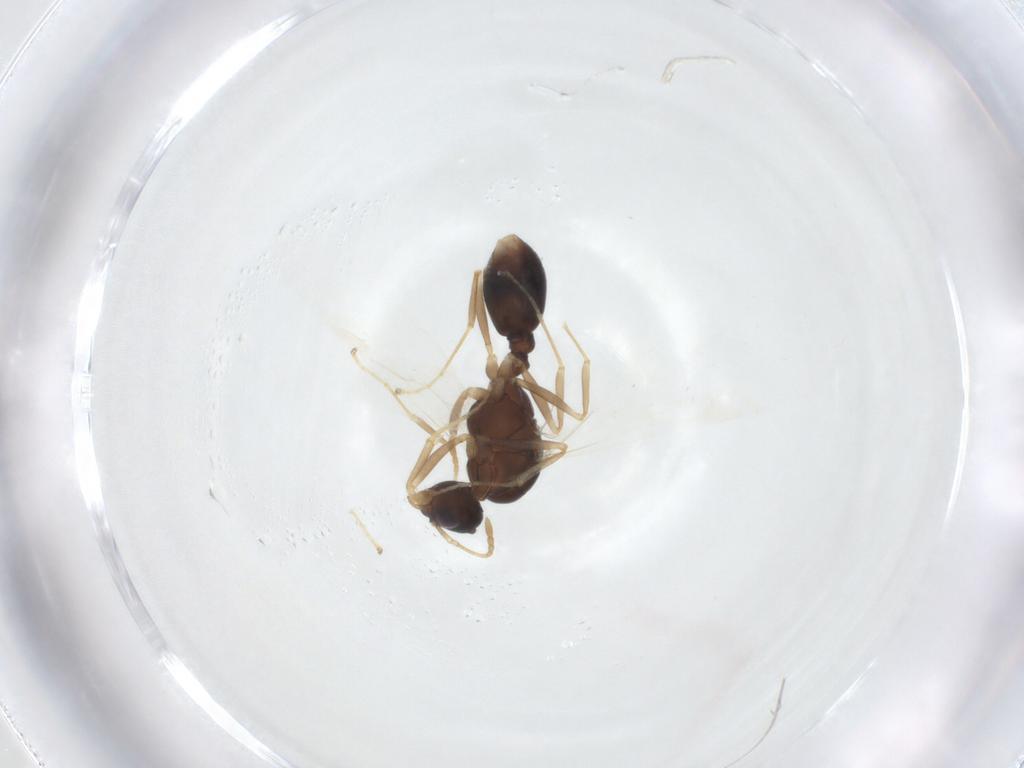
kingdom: Animalia
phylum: Arthropoda
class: Insecta
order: Hymenoptera
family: Formicidae
